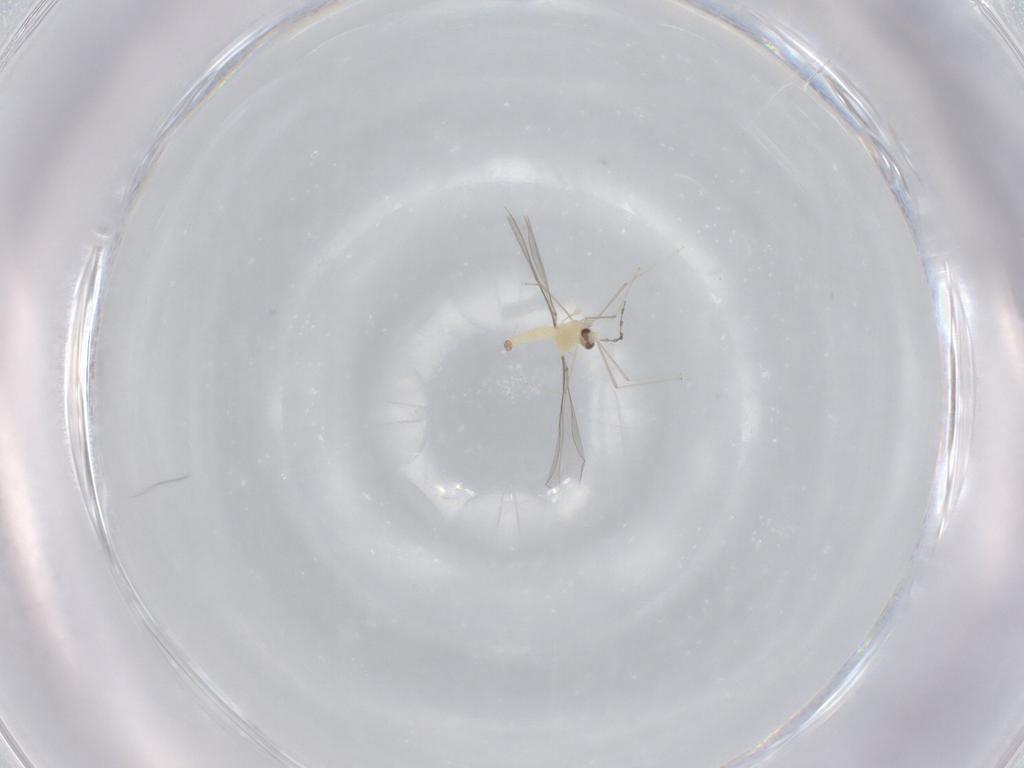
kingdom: Animalia
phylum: Arthropoda
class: Insecta
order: Diptera
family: Cecidomyiidae
